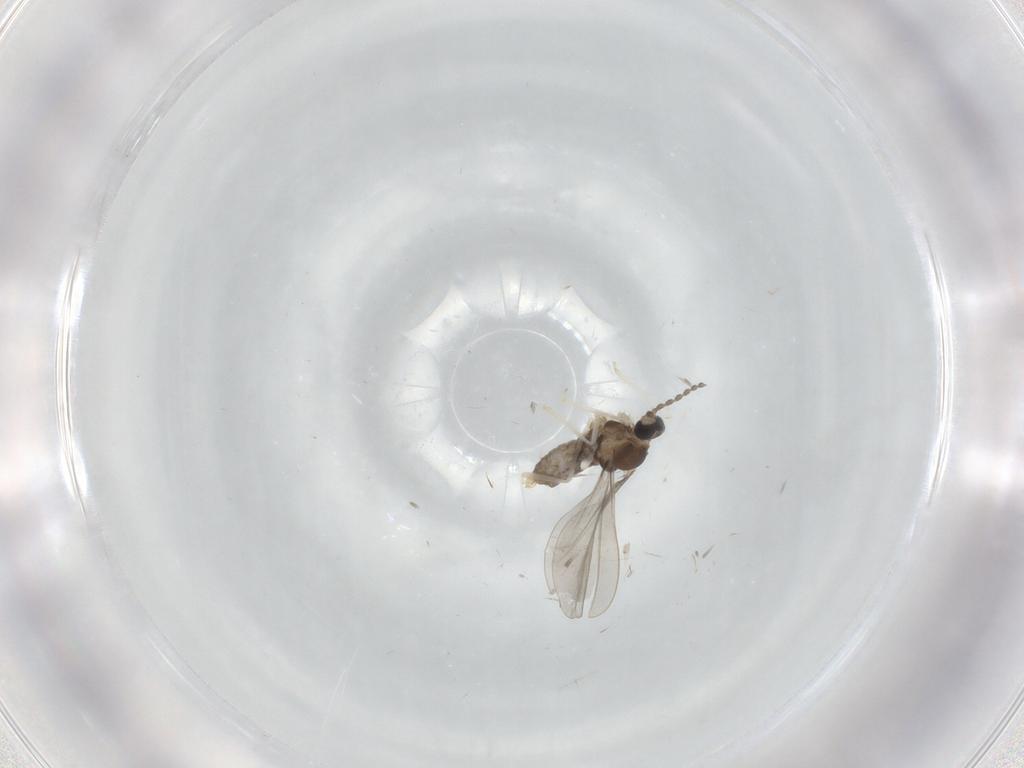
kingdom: Animalia
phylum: Arthropoda
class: Insecta
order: Diptera
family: Cecidomyiidae
